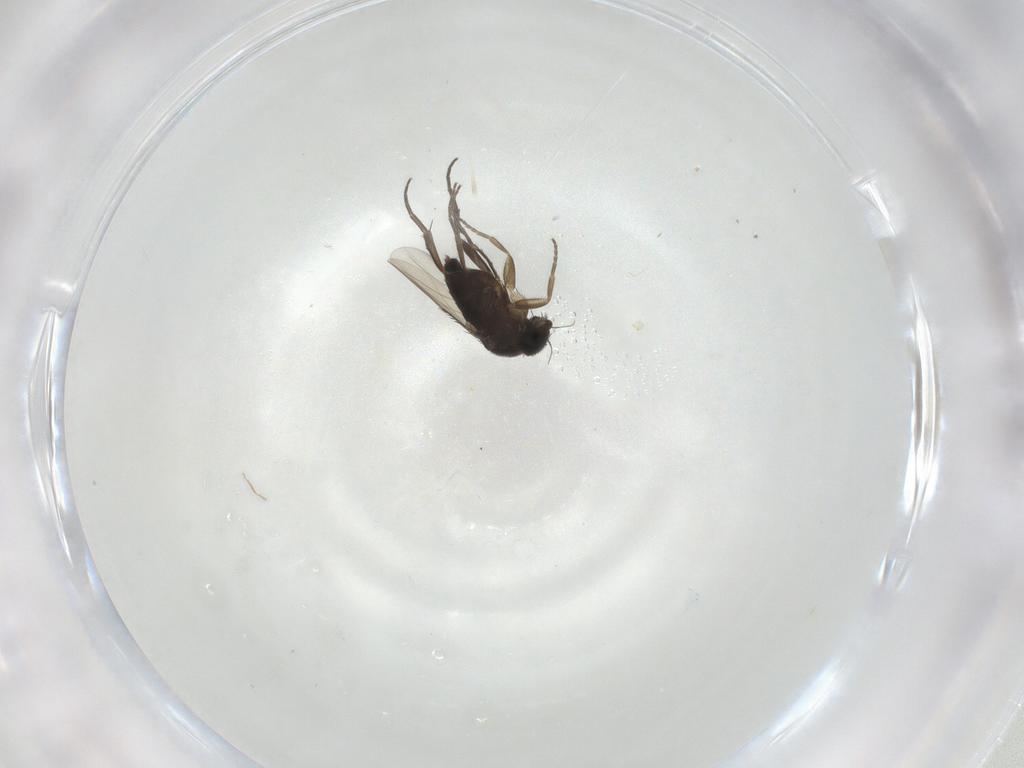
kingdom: Animalia
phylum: Arthropoda
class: Insecta
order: Diptera
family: Phoridae
